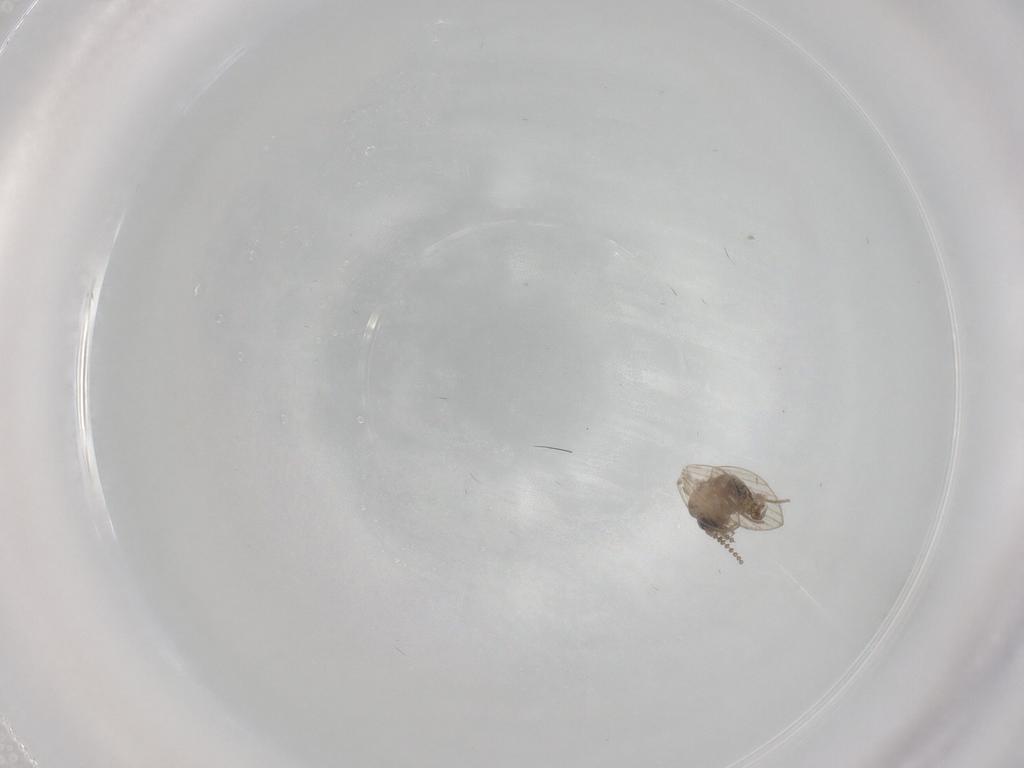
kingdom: Animalia
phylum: Arthropoda
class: Insecta
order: Diptera
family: Psychodidae
